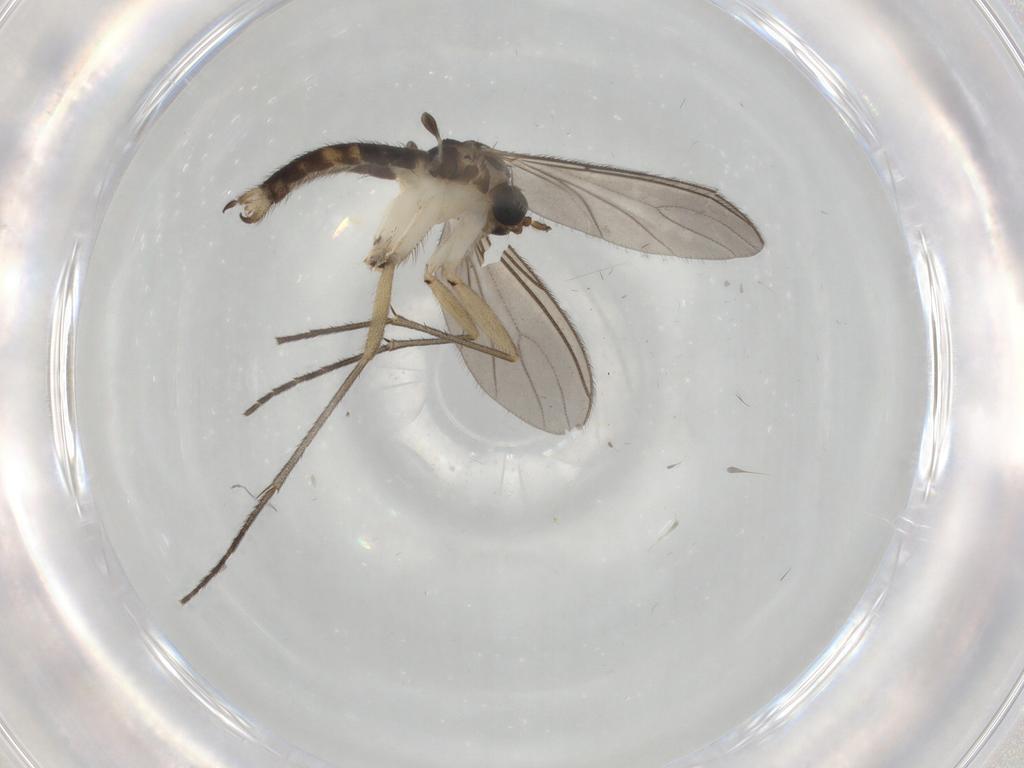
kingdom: Animalia
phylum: Arthropoda
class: Insecta
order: Diptera
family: Sciaridae
